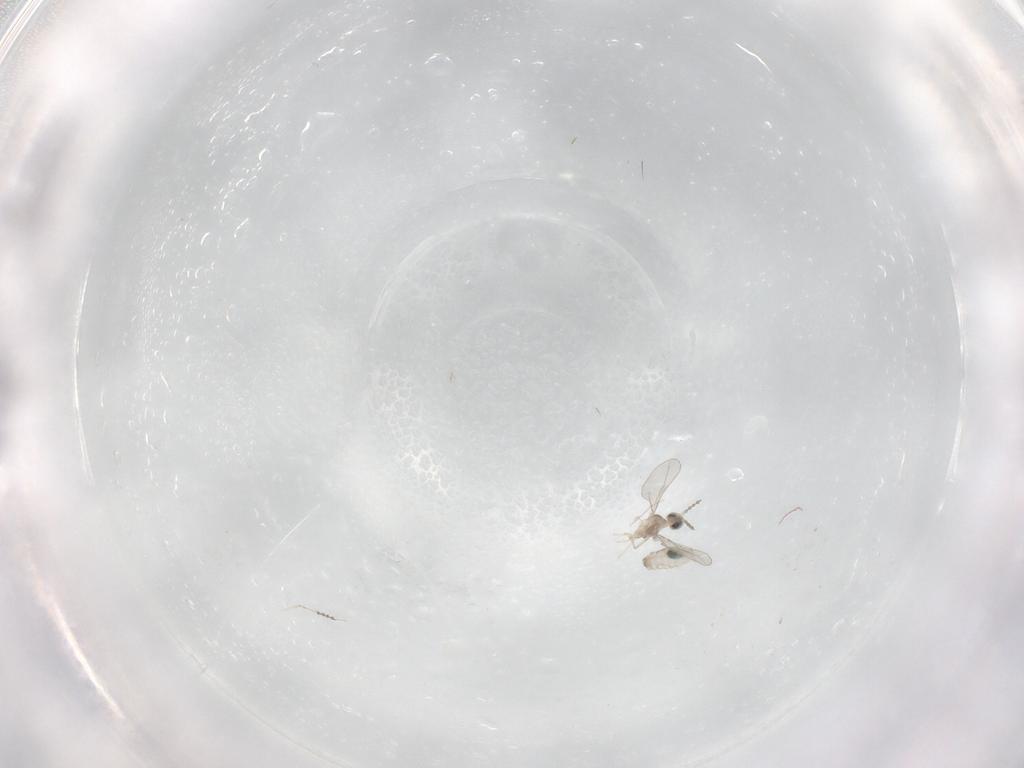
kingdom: Animalia
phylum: Arthropoda
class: Insecta
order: Diptera
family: Cecidomyiidae
